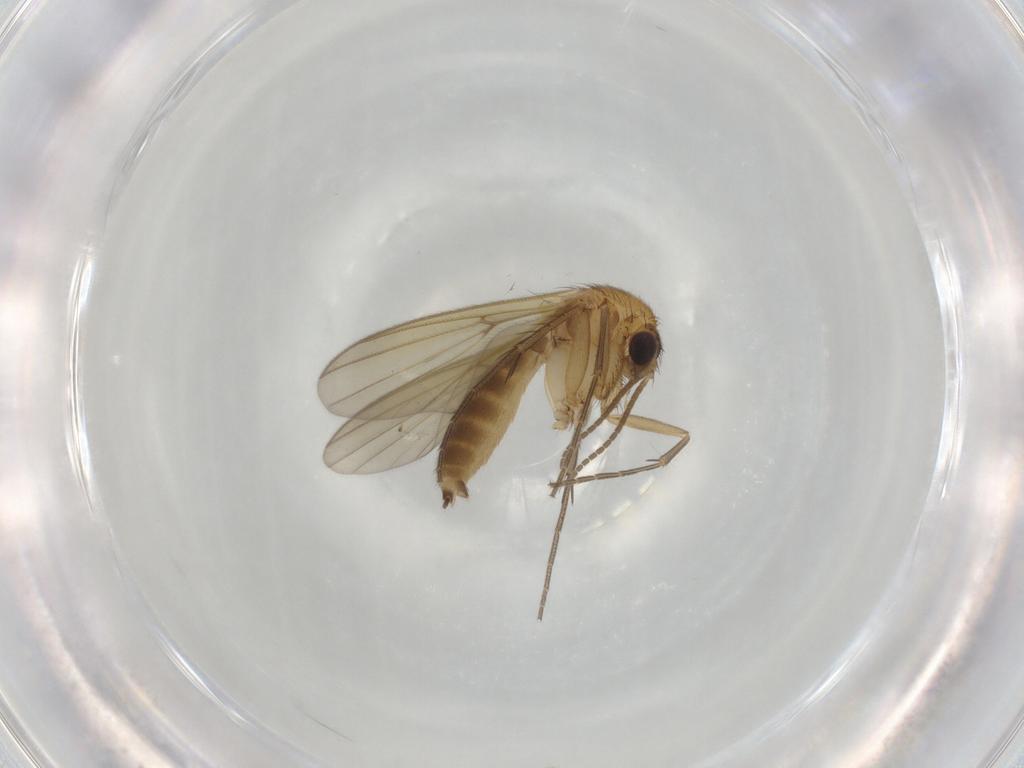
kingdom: Animalia
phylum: Arthropoda
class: Insecta
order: Diptera
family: Mycetophilidae
